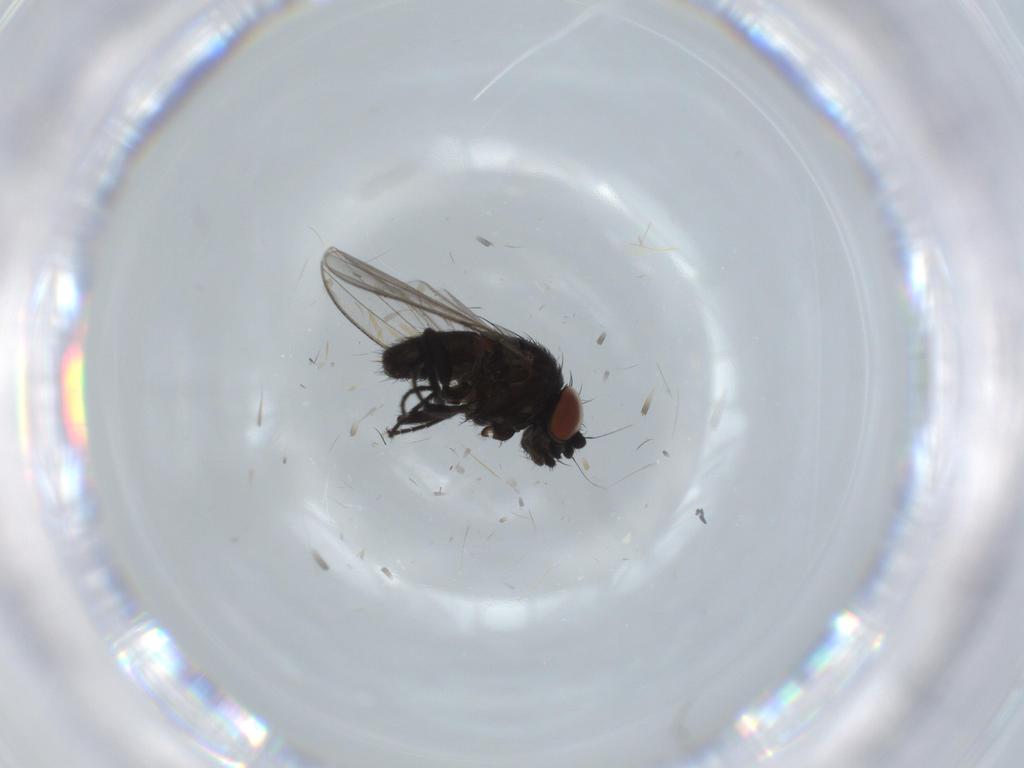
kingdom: Animalia
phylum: Arthropoda
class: Insecta
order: Diptera
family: Milichiidae
